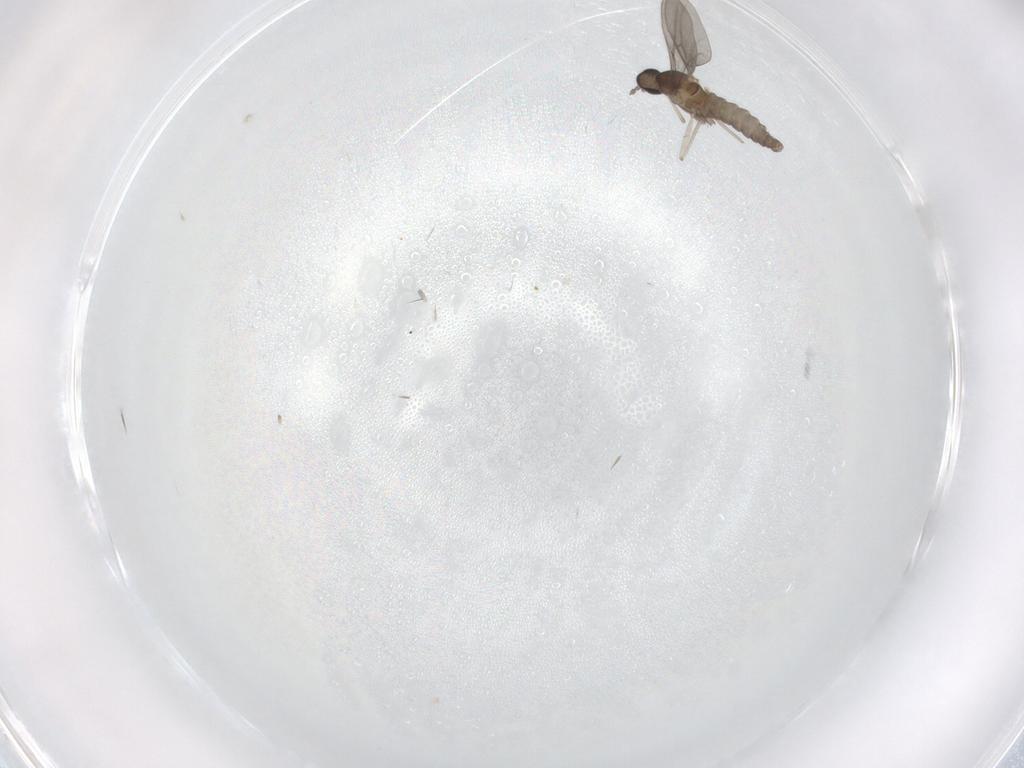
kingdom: Animalia
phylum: Arthropoda
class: Insecta
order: Diptera
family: Cecidomyiidae
